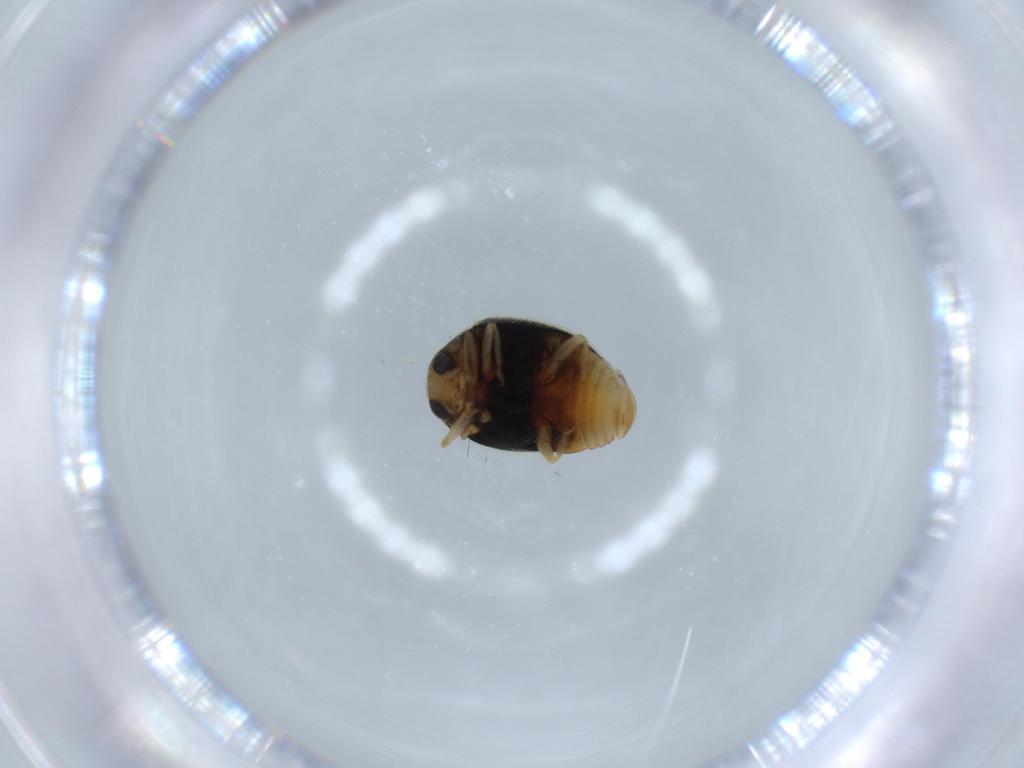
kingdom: Animalia
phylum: Arthropoda
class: Insecta
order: Coleoptera
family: Coccinellidae
